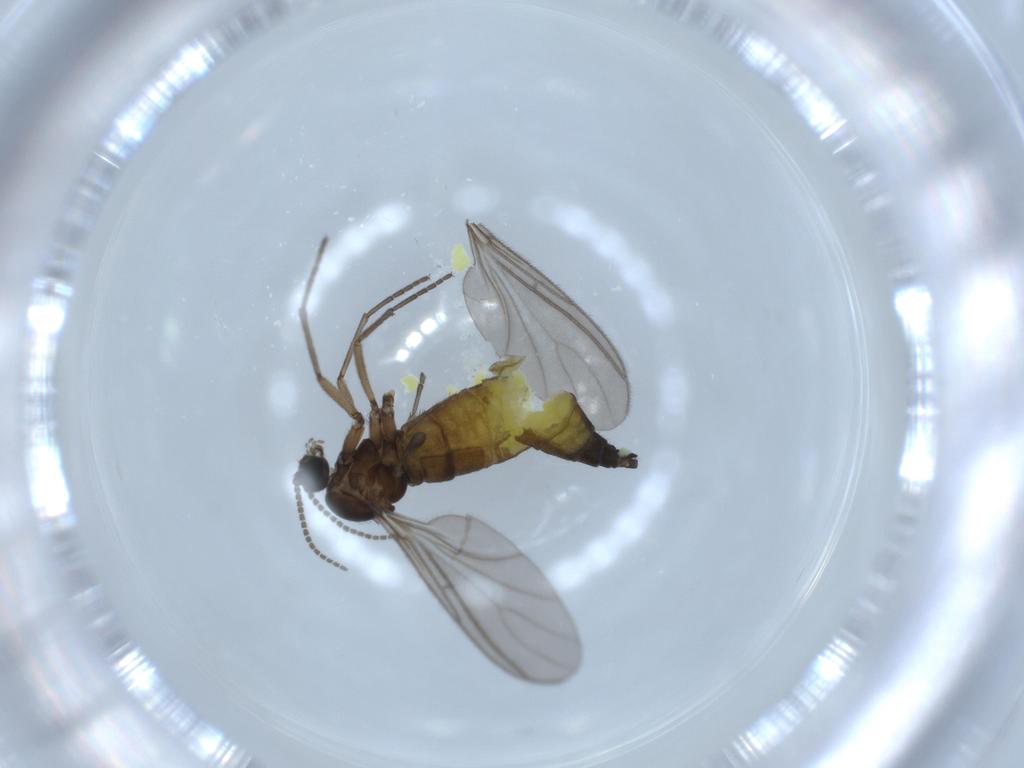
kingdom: Animalia
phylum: Arthropoda
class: Insecta
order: Diptera
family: Sciaridae
